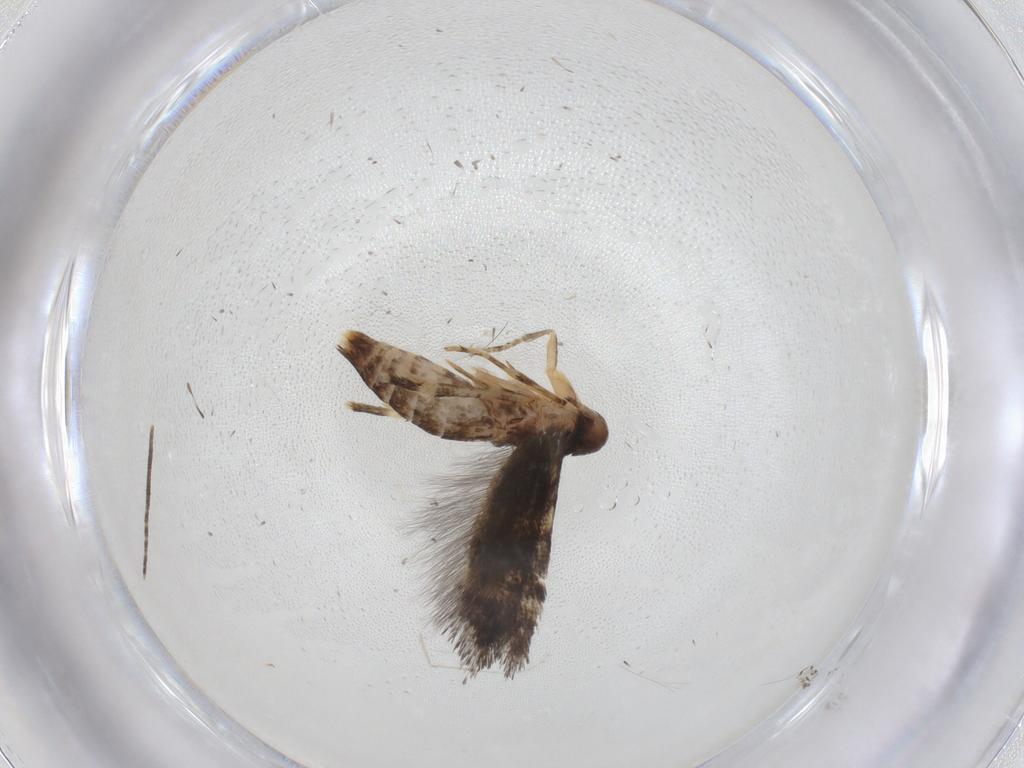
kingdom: Animalia
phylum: Arthropoda
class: Insecta
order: Lepidoptera
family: Erebidae
